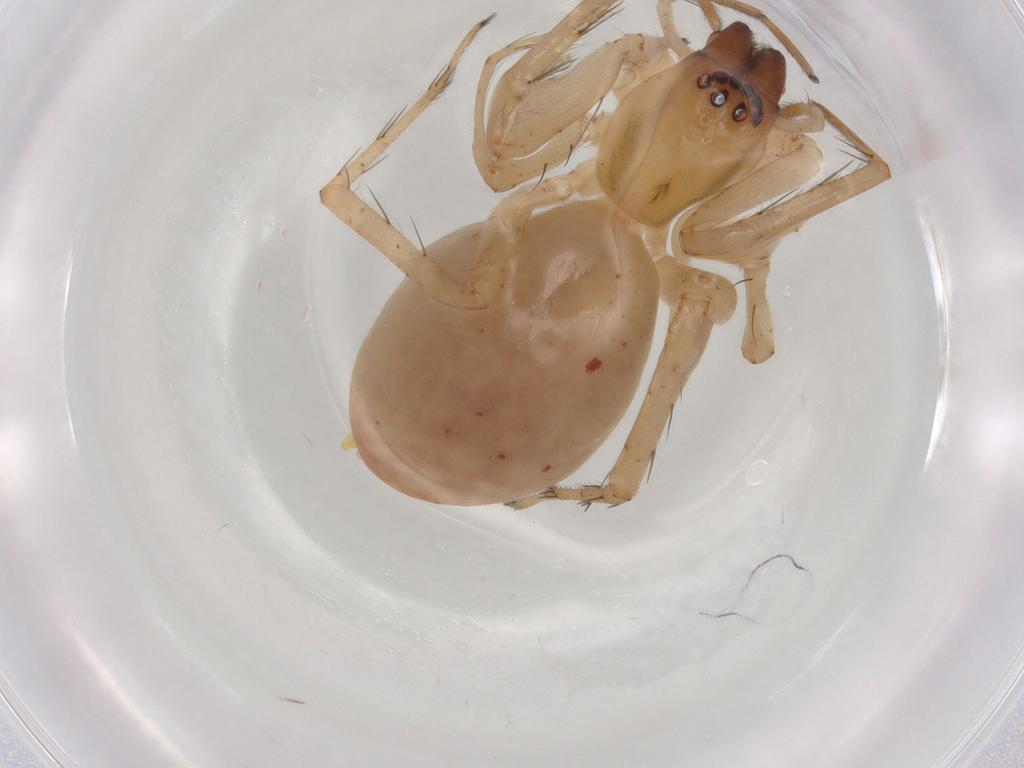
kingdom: Animalia
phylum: Arthropoda
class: Arachnida
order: Araneae
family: Anyphaenidae
